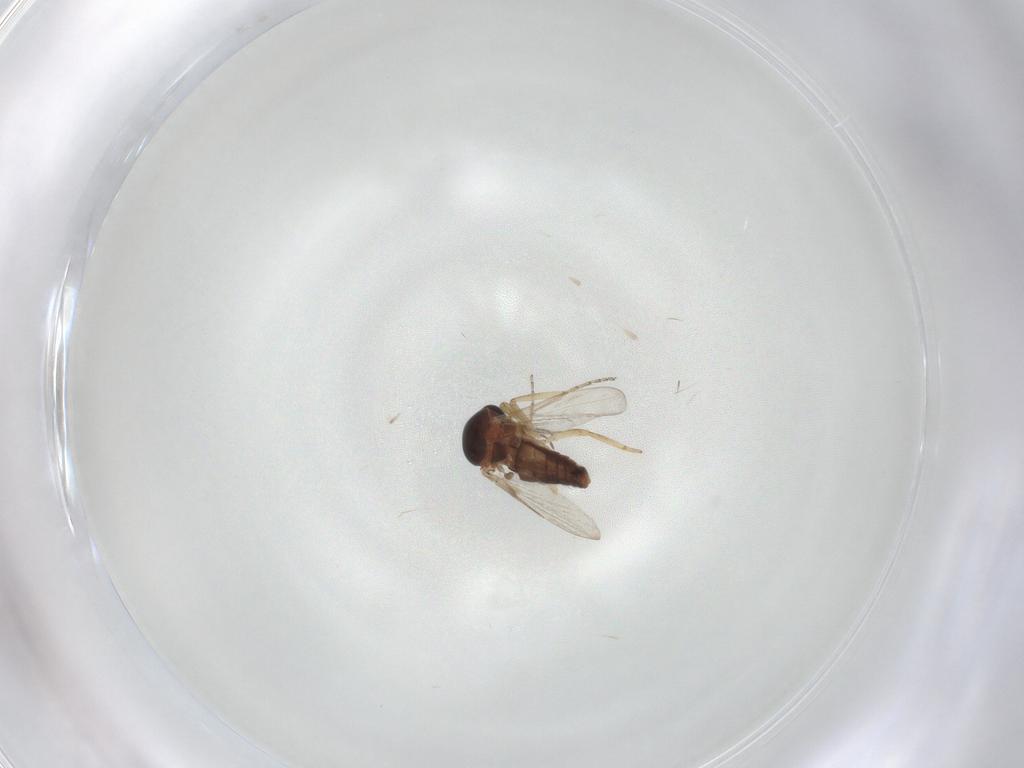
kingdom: Animalia
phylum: Arthropoda
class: Insecta
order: Diptera
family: Ceratopogonidae
